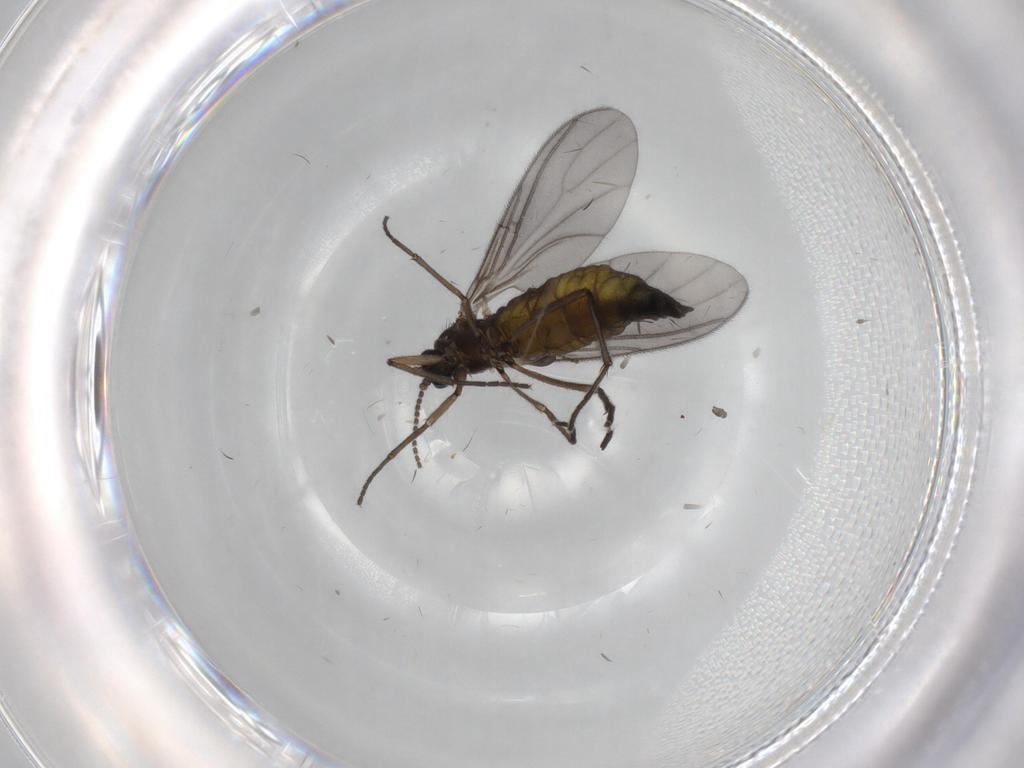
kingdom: Animalia
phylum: Arthropoda
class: Insecta
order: Diptera
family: Sciaridae
